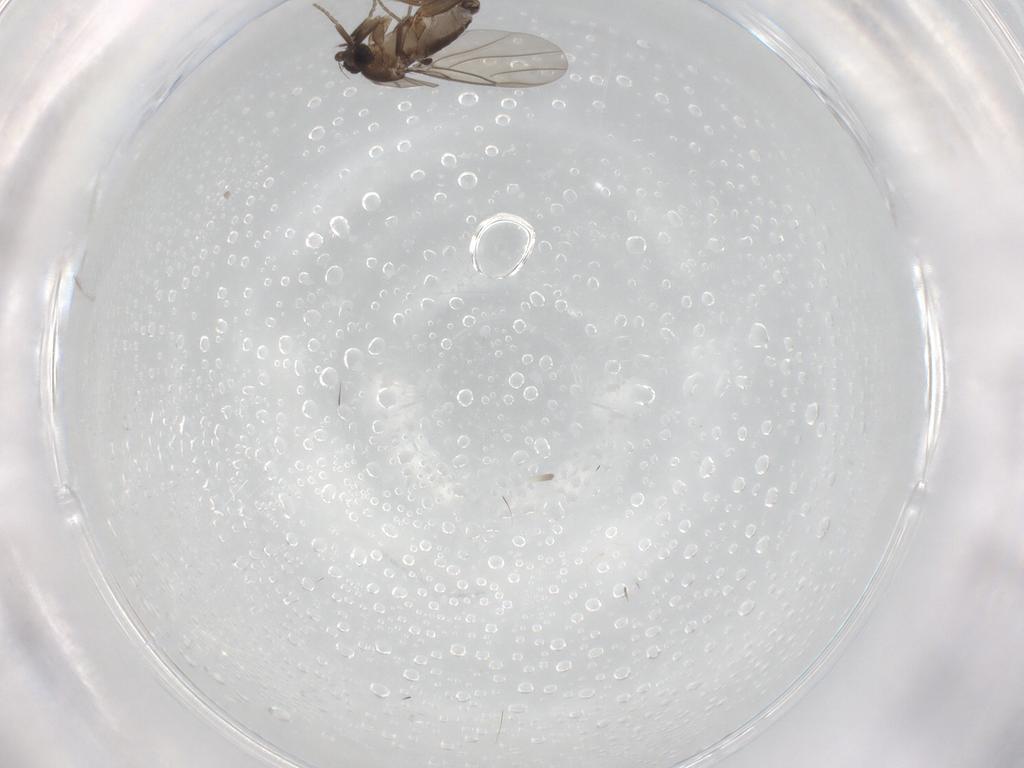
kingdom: Animalia
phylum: Arthropoda
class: Insecta
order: Diptera
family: Phoridae
